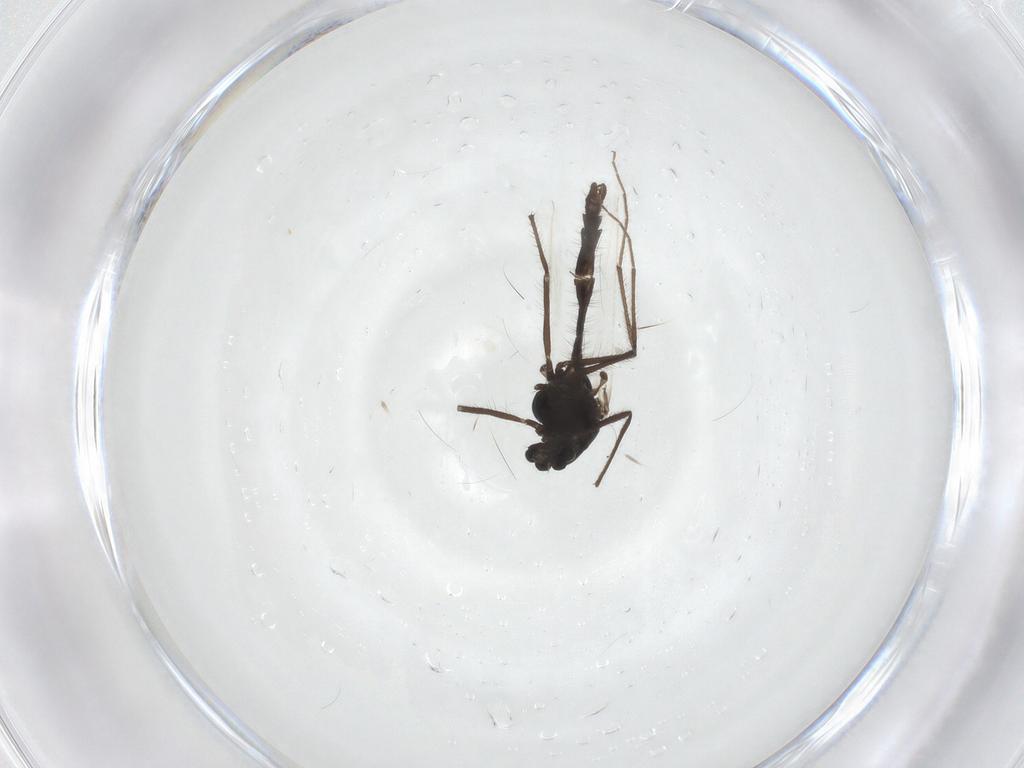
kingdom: Animalia
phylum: Arthropoda
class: Insecta
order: Diptera
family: Chironomidae
